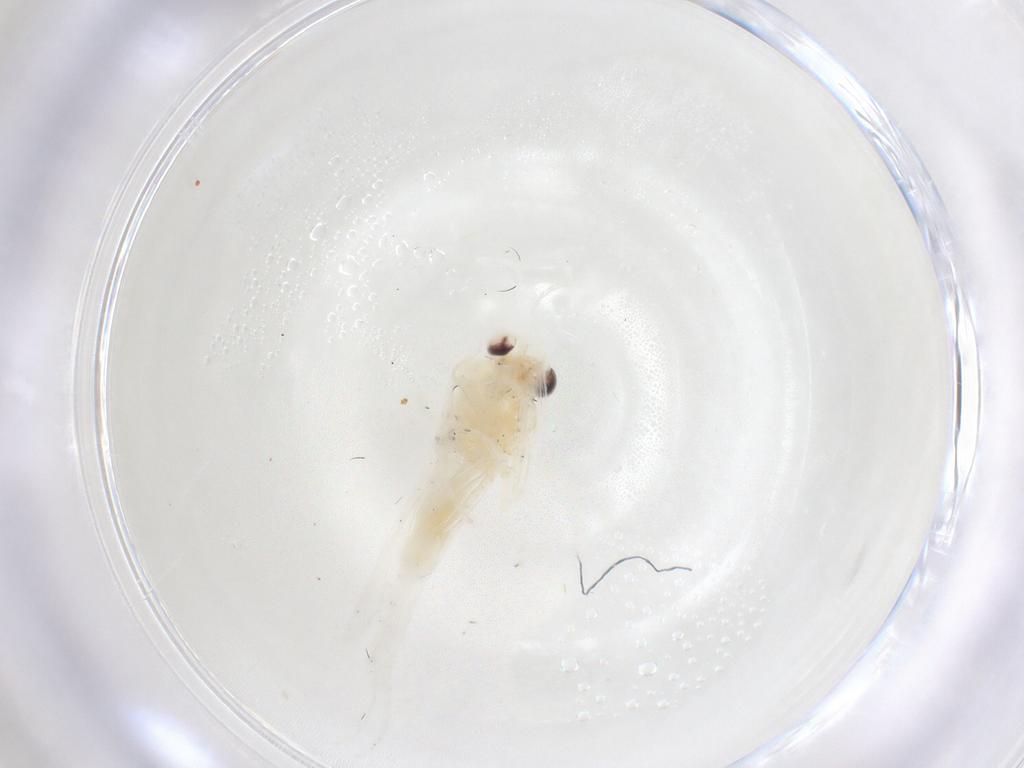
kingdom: Animalia
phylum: Arthropoda
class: Insecta
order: Diptera
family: Limoniidae
